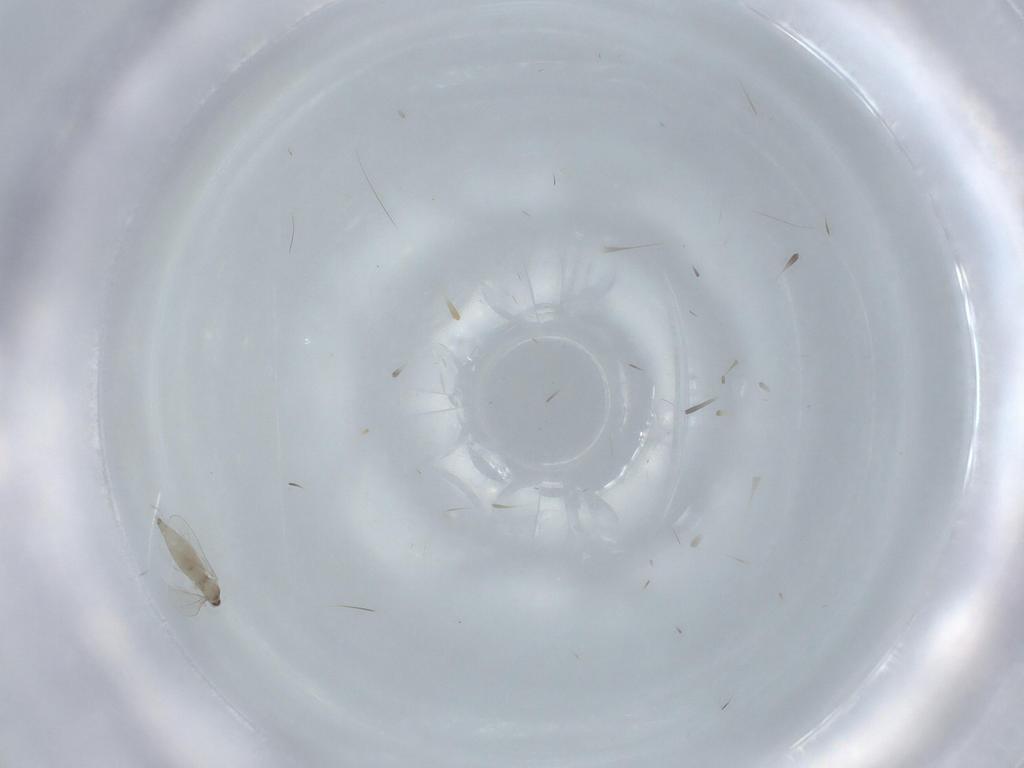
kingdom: Animalia
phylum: Arthropoda
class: Insecta
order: Diptera
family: Cecidomyiidae
